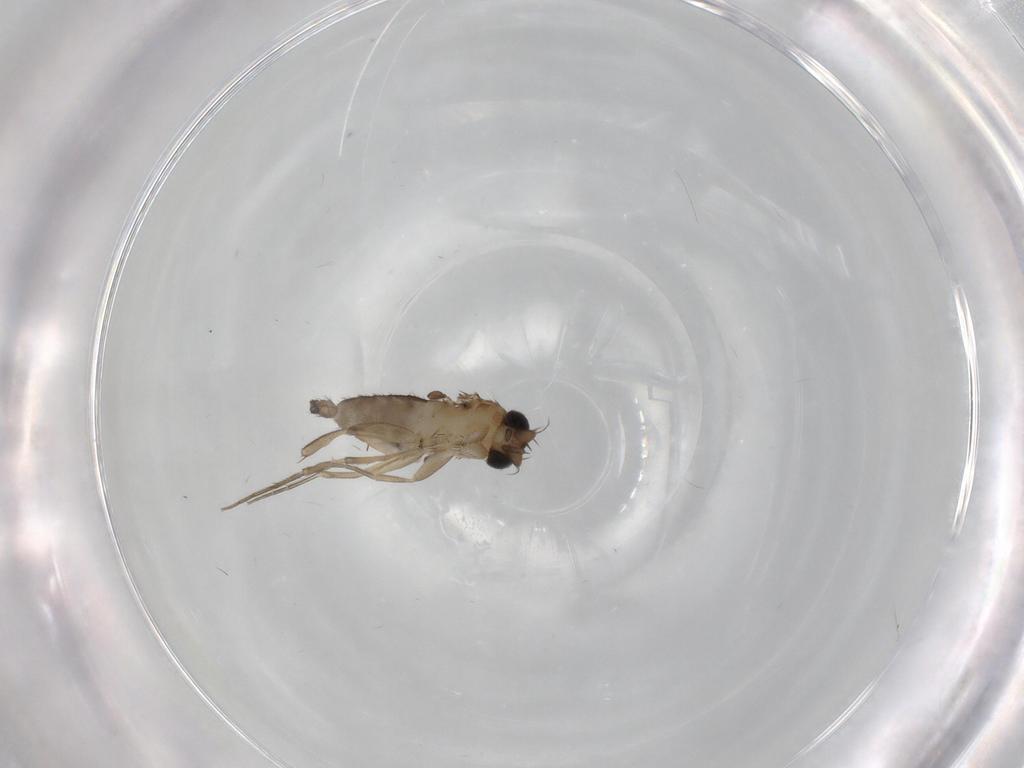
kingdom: Animalia
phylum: Arthropoda
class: Insecta
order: Diptera
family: Phoridae
